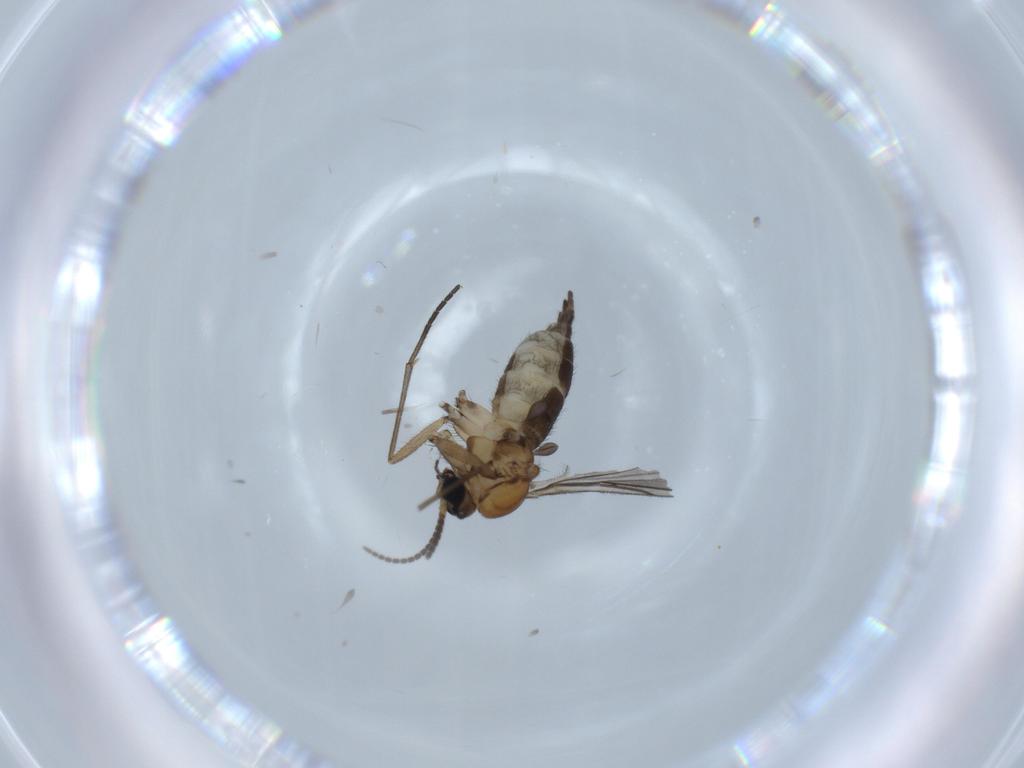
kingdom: Animalia
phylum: Arthropoda
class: Insecta
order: Diptera
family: Sciaridae
